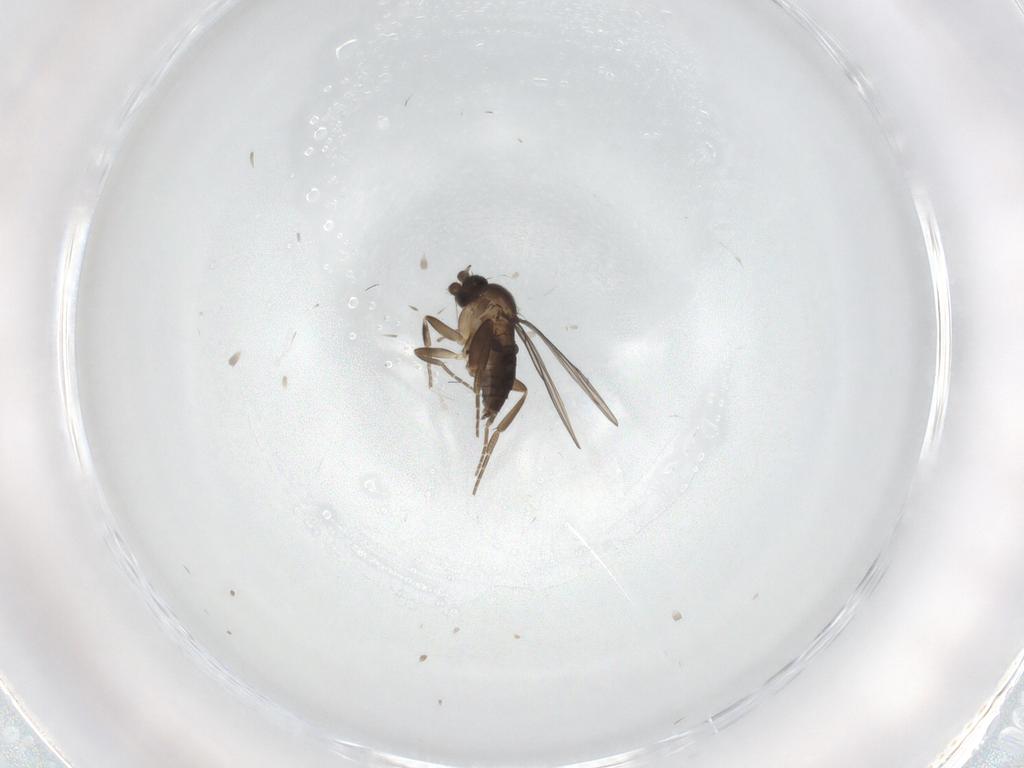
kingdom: Animalia
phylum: Arthropoda
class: Insecta
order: Diptera
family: Phoridae
